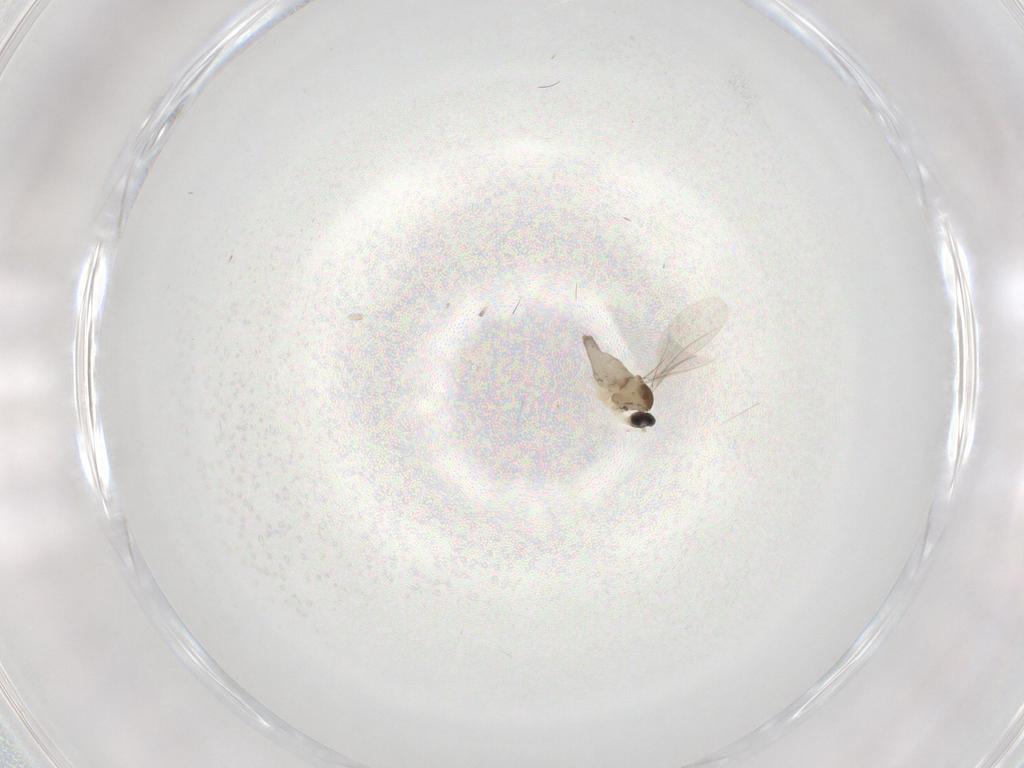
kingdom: Animalia
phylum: Arthropoda
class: Insecta
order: Diptera
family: Cecidomyiidae
